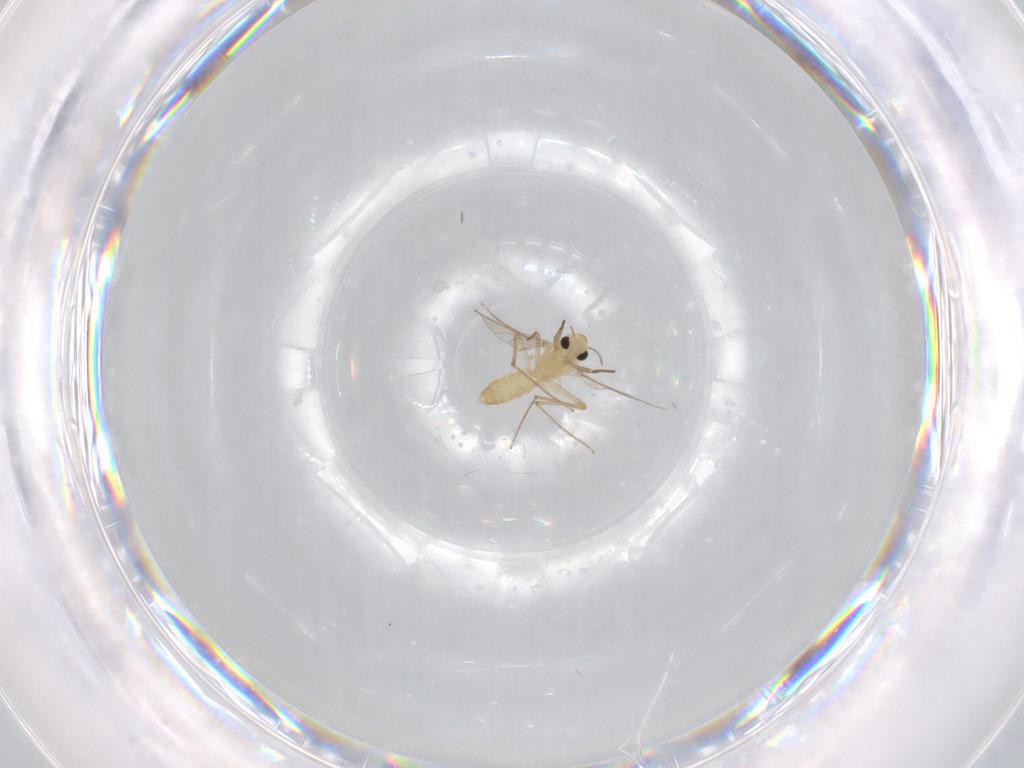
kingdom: Animalia
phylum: Arthropoda
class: Insecta
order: Diptera
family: Chironomidae
